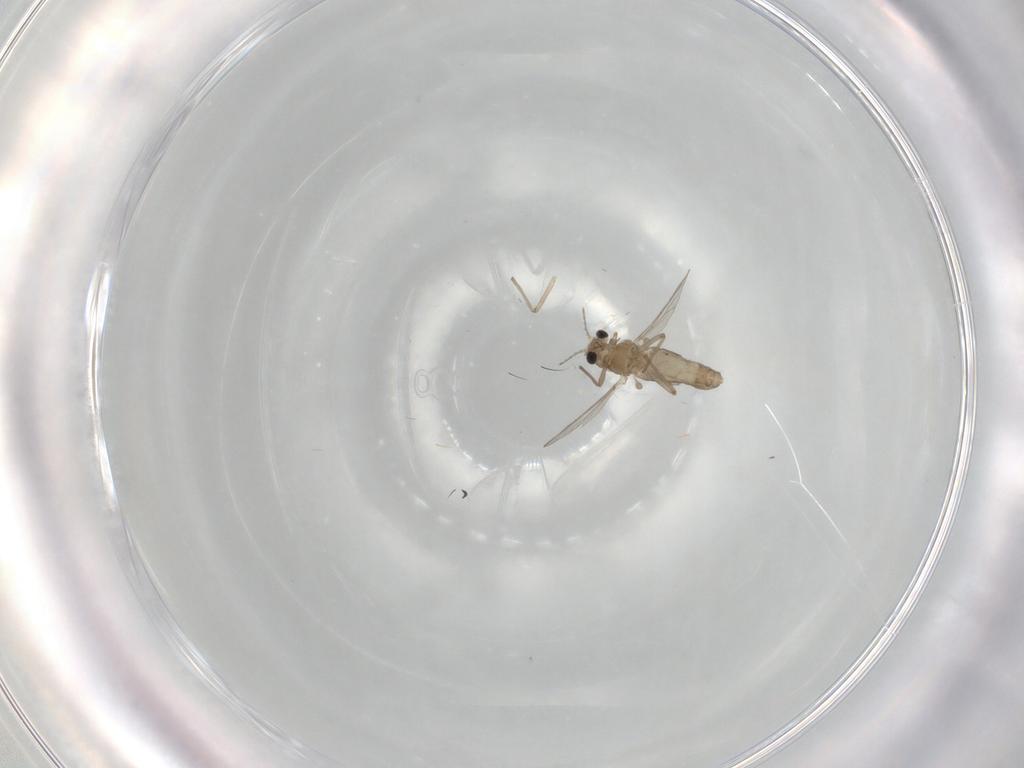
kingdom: Animalia
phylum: Arthropoda
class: Insecta
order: Diptera
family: Chironomidae
